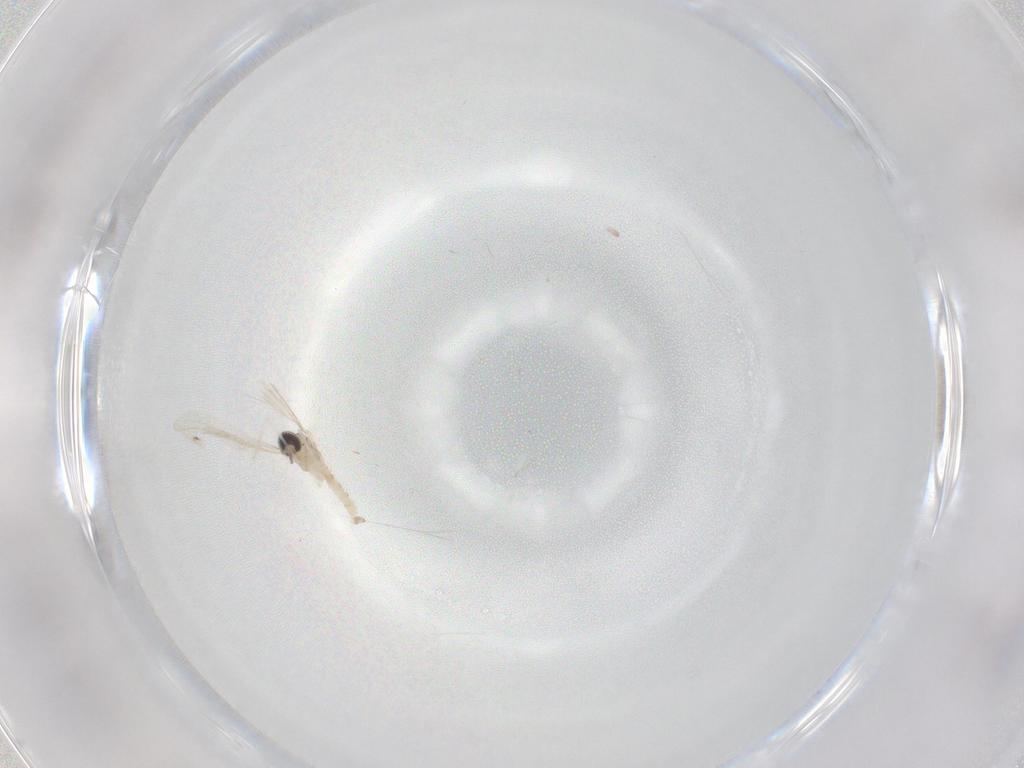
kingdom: Animalia
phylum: Arthropoda
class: Insecta
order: Diptera
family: Phoridae
